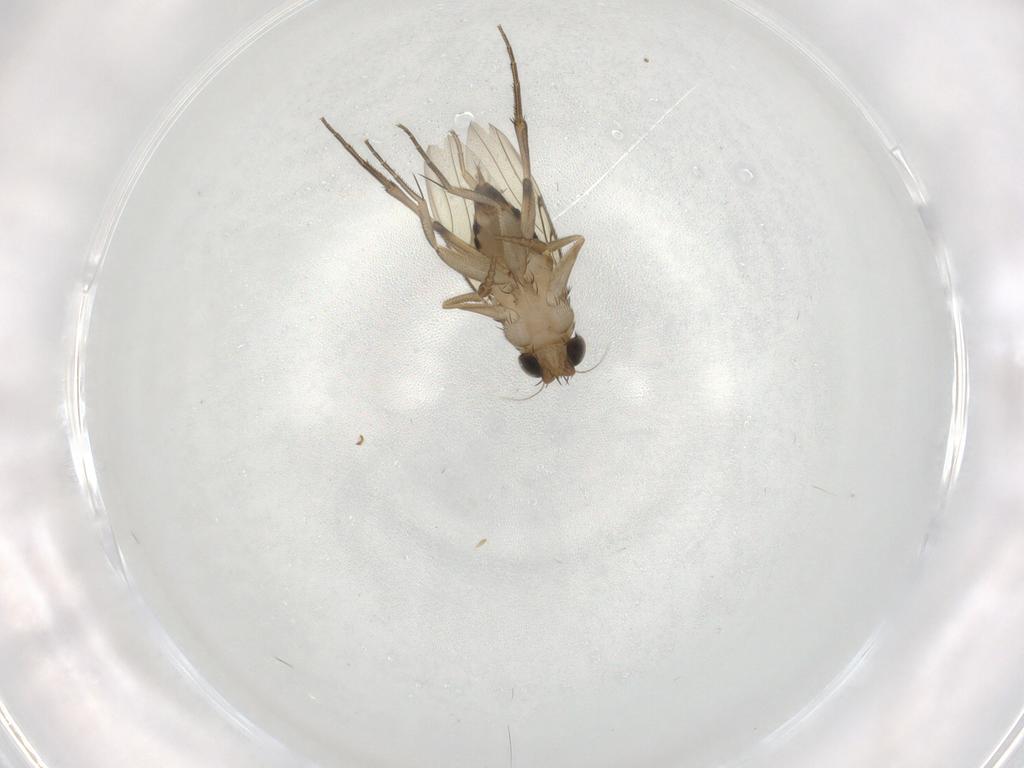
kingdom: Animalia
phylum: Arthropoda
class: Insecta
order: Diptera
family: Phoridae
